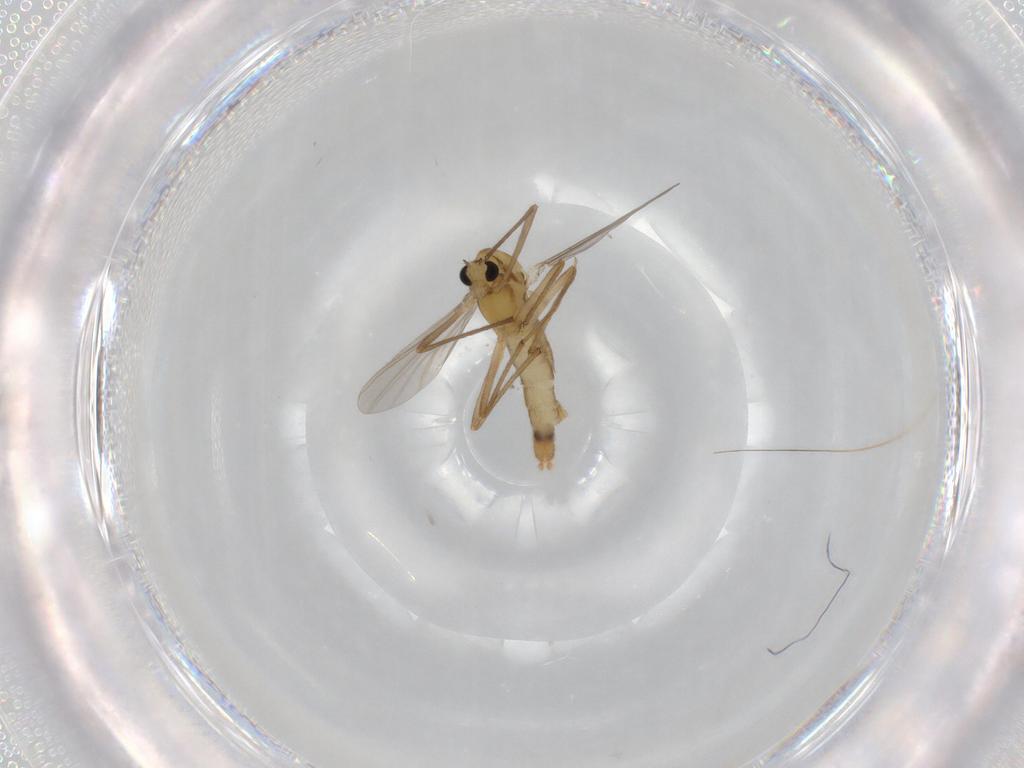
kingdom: Animalia
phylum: Arthropoda
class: Insecta
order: Diptera
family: Chironomidae
